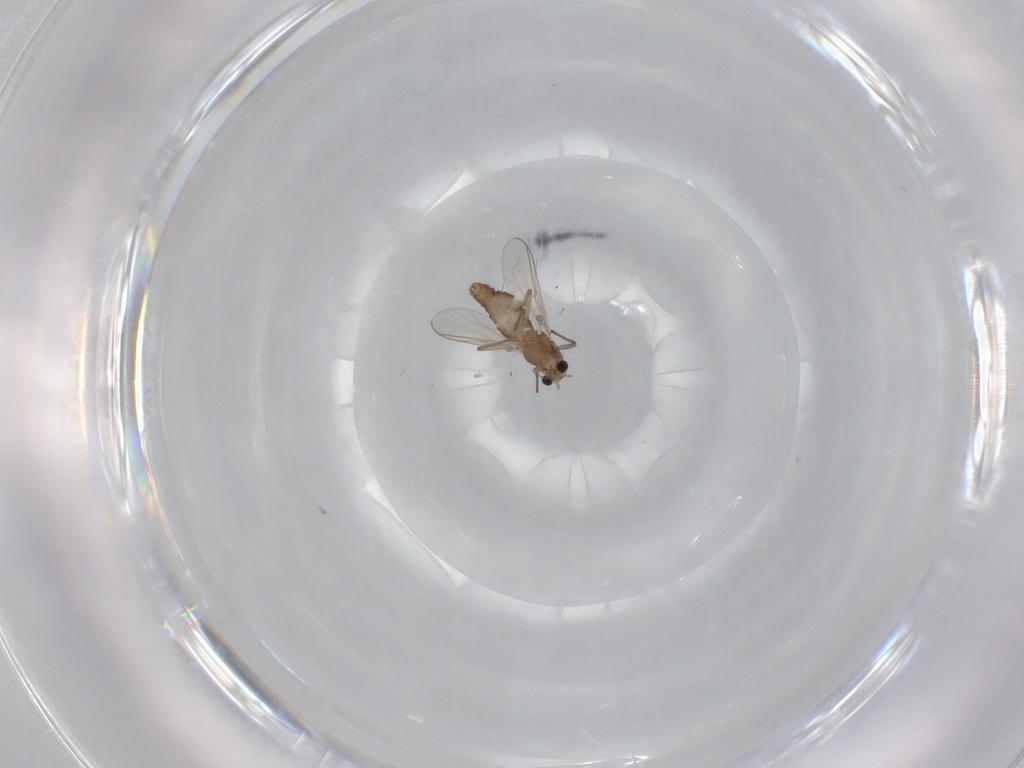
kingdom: Animalia
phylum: Arthropoda
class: Insecta
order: Diptera
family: Chironomidae
